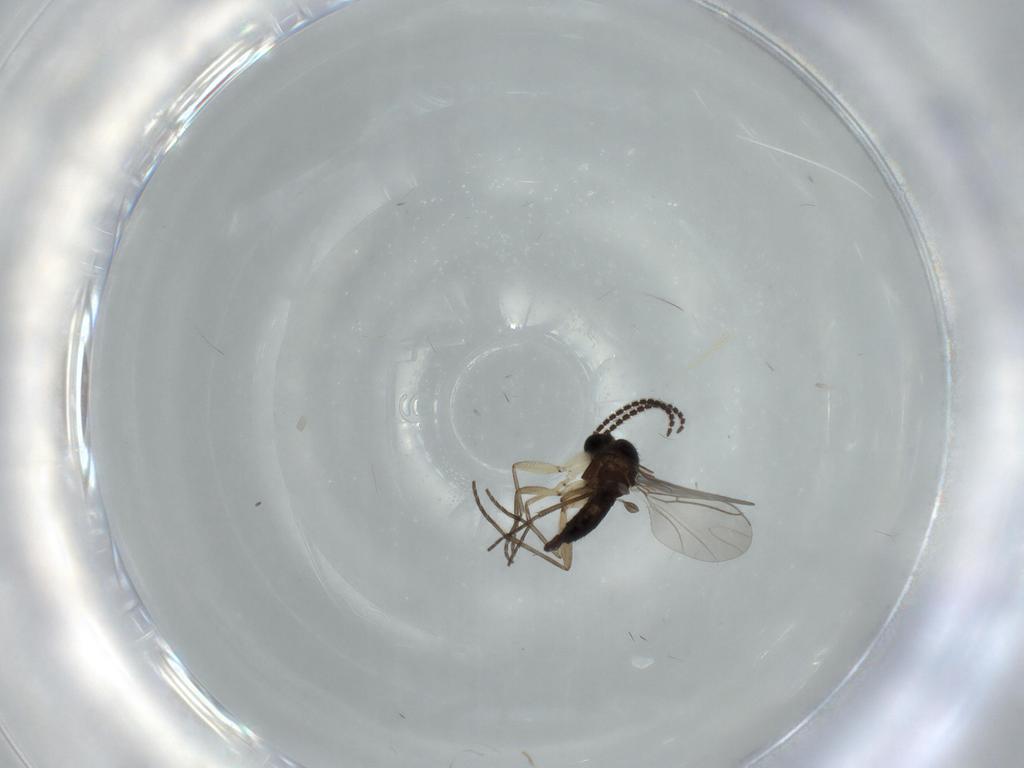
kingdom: Animalia
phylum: Arthropoda
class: Insecta
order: Diptera
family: Sciaridae
